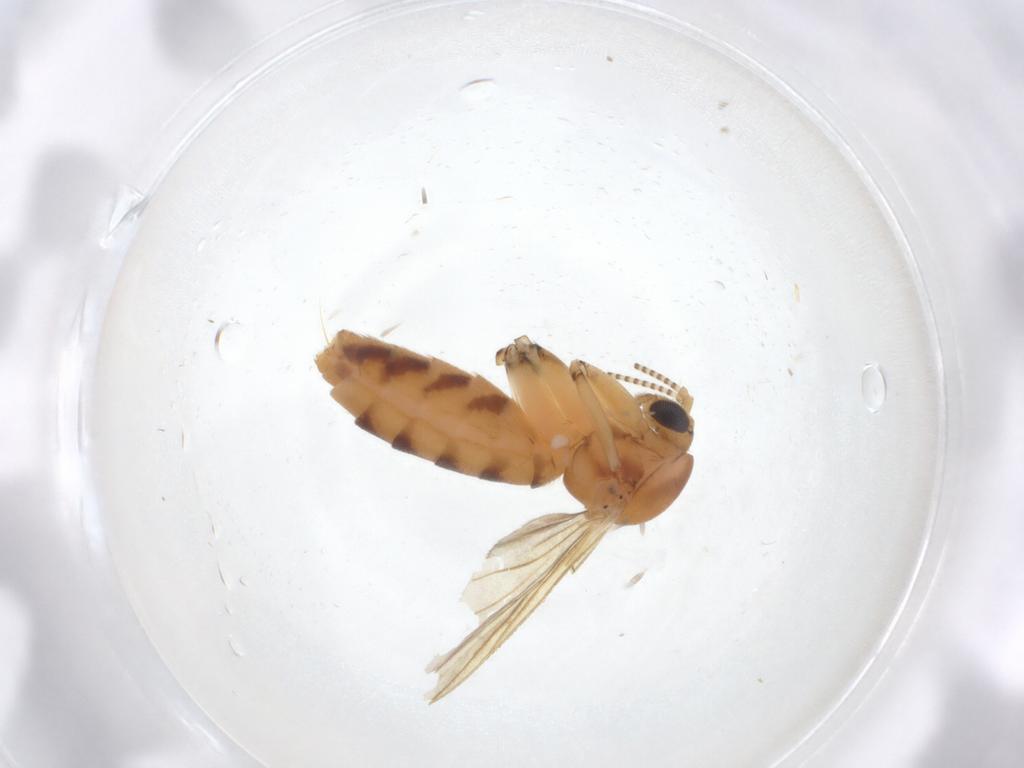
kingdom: Animalia
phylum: Arthropoda
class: Insecta
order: Diptera
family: Mycetophilidae
